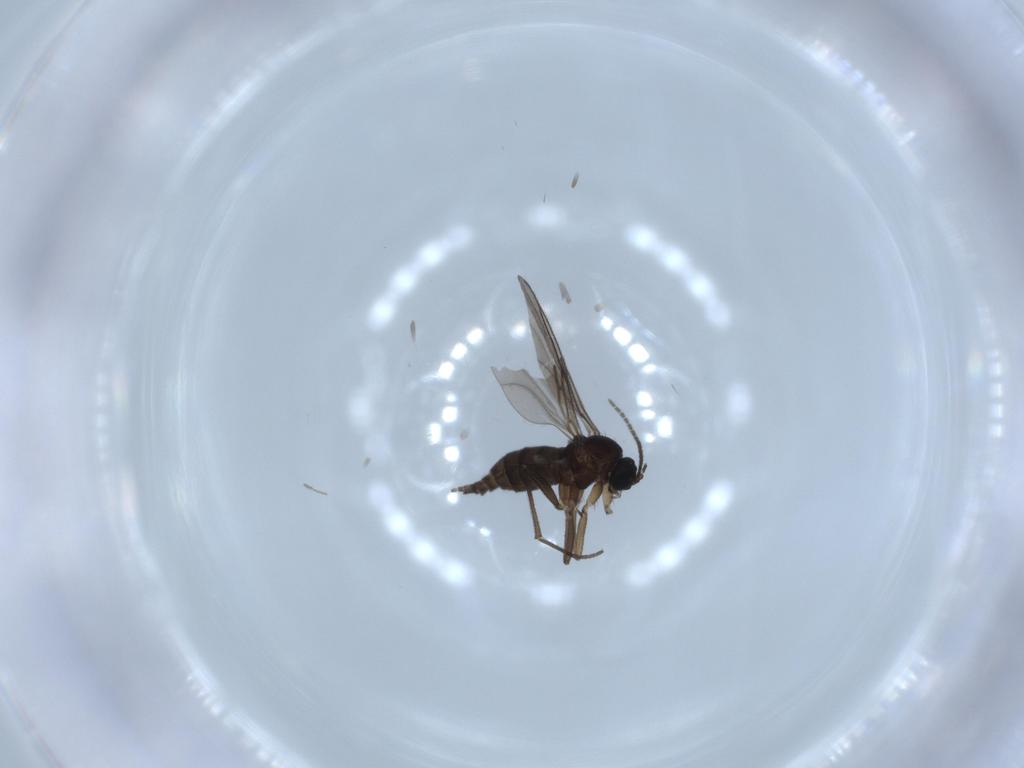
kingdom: Animalia
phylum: Arthropoda
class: Insecta
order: Diptera
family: Sciaridae
